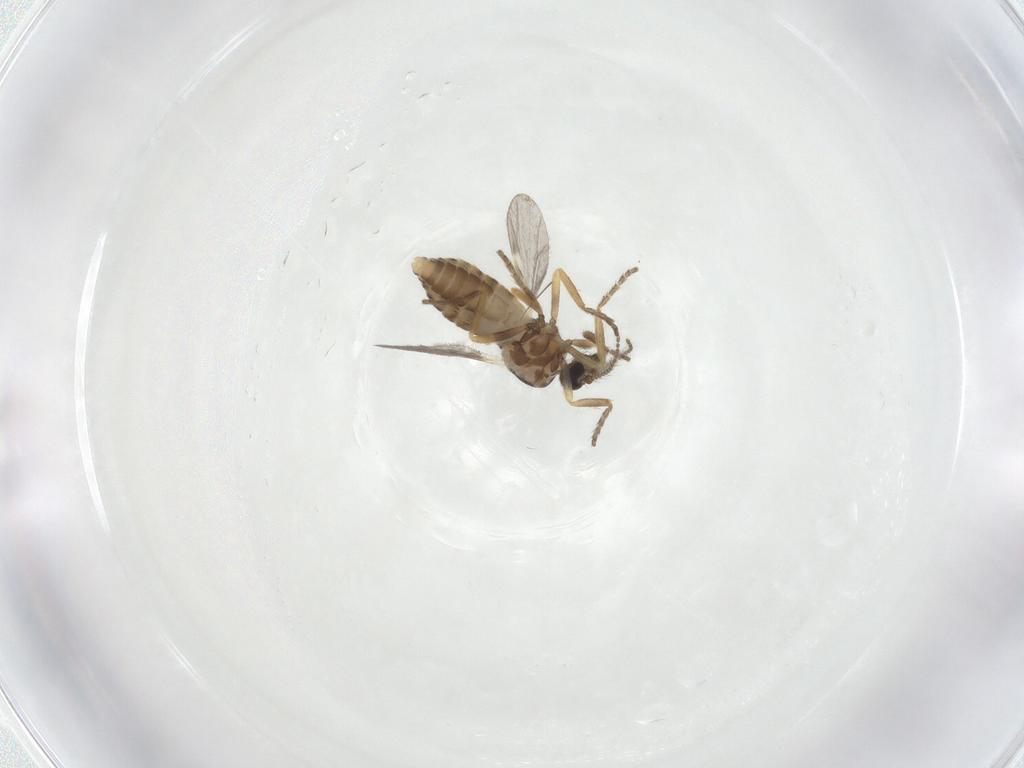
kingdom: Animalia
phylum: Arthropoda
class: Insecta
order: Diptera
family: Ceratopogonidae
